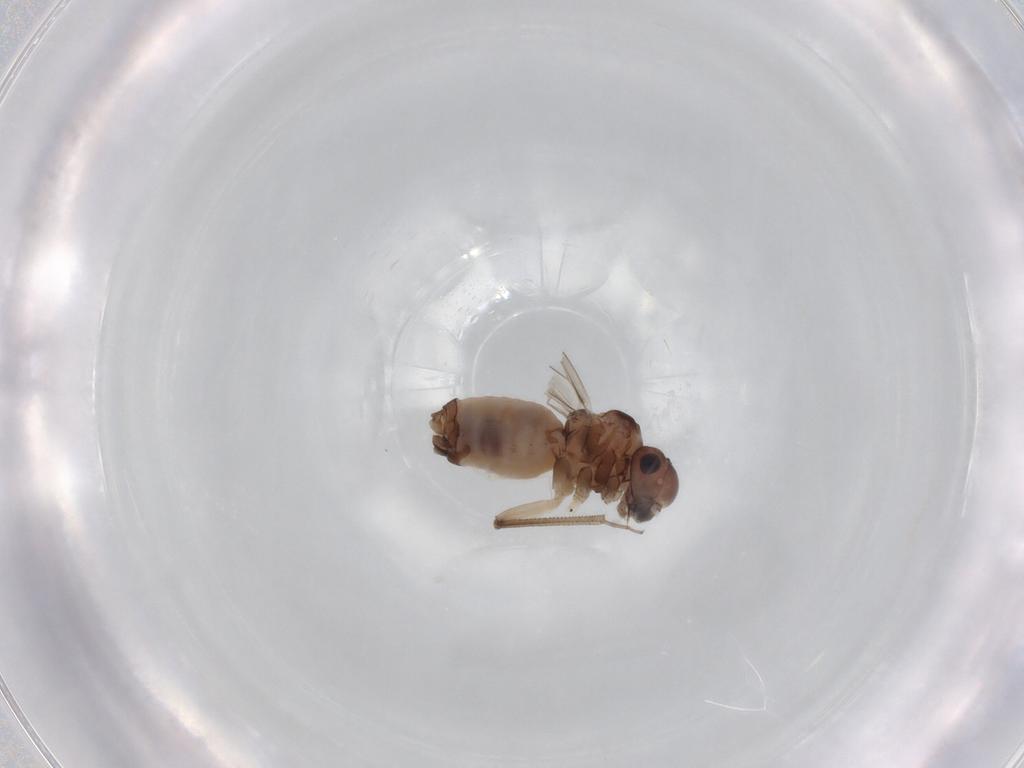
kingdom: Animalia
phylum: Arthropoda
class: Insecta
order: Psocodea
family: Peripsocidae
